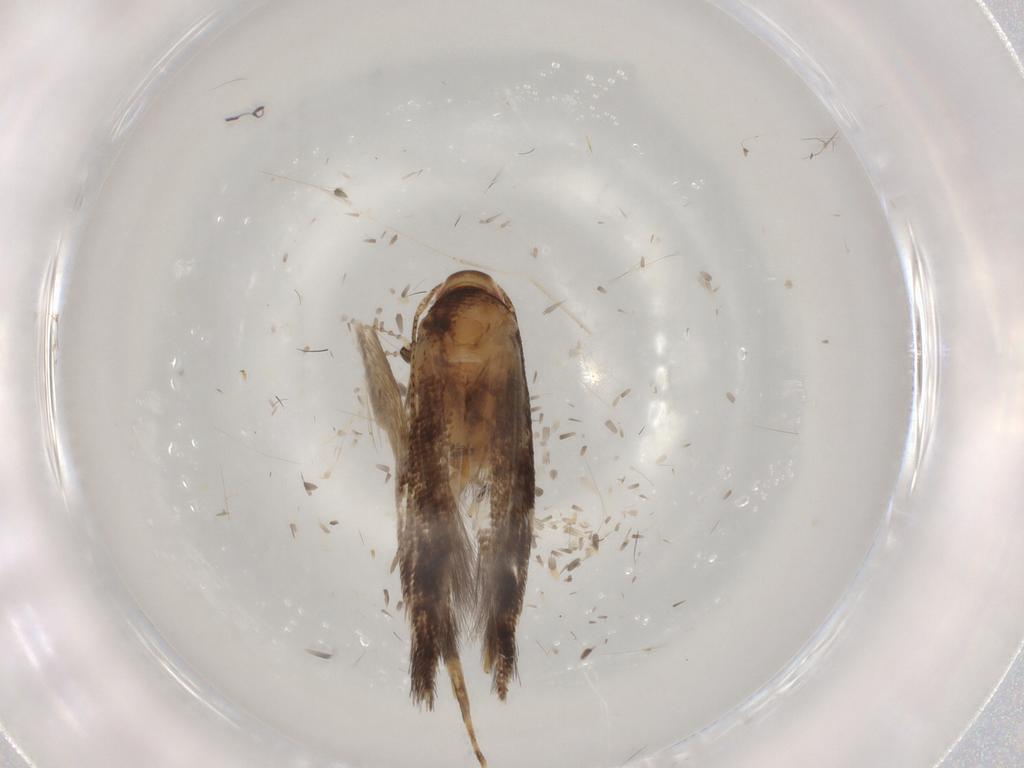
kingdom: Animalia
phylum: Arthropoda
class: Insecta
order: Lepidoptera
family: Cosmopterigidae
